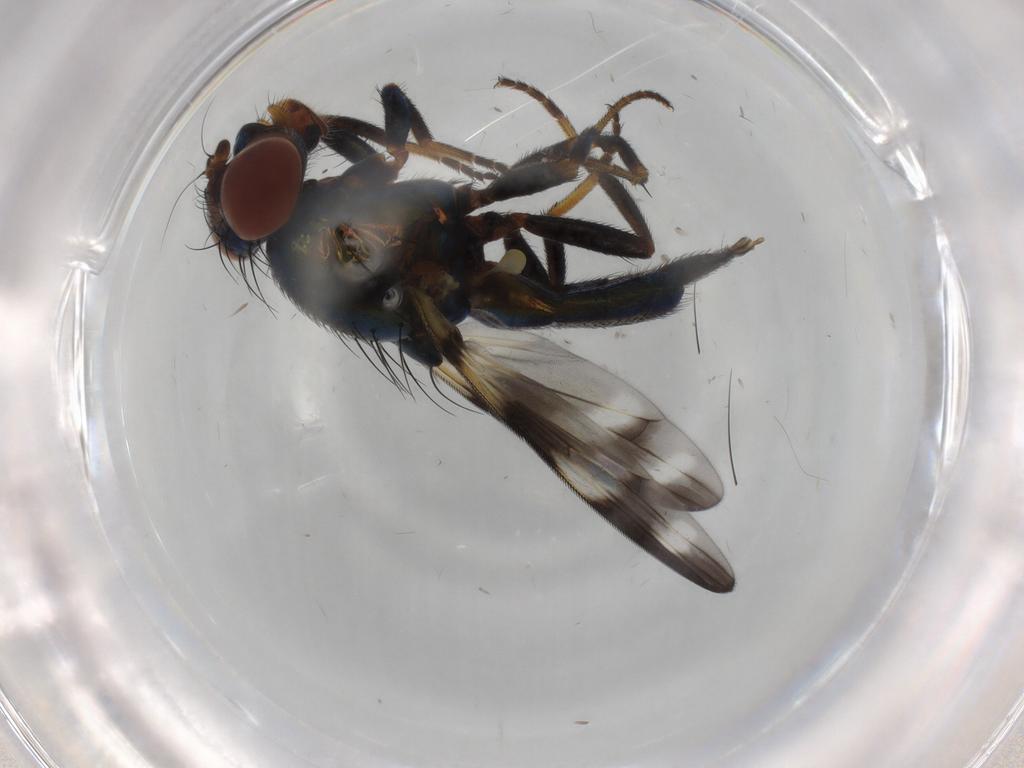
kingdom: Animalia
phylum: Arthropoda
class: Insecta
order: Diptera
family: Ulidiidae
